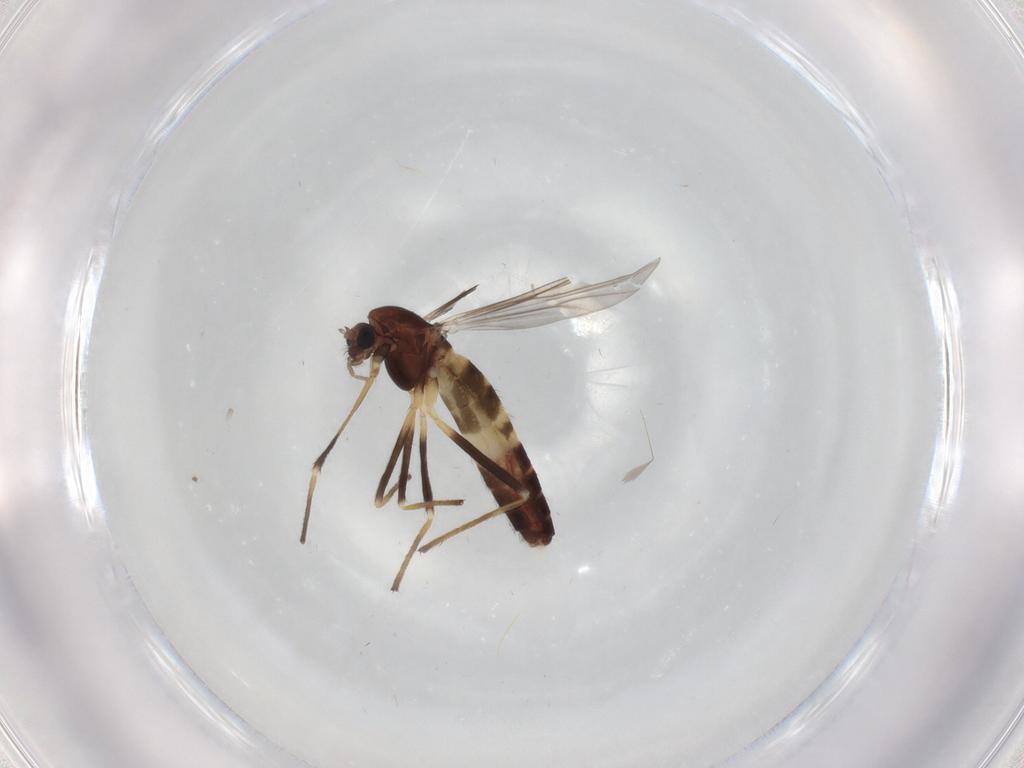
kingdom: Animalia
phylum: Arthropoda
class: Insecta
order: Diptera
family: Chironomidae
